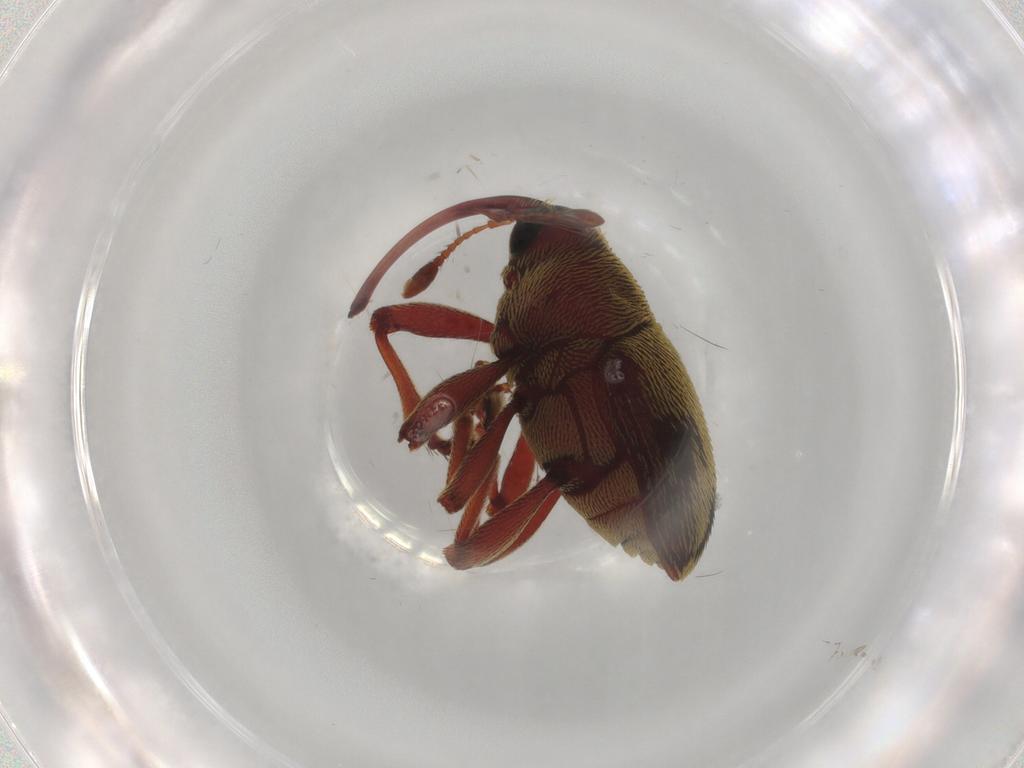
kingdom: Animalia
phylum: Arthropoda
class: Insecta
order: Coleoptera
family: Curculionidae
